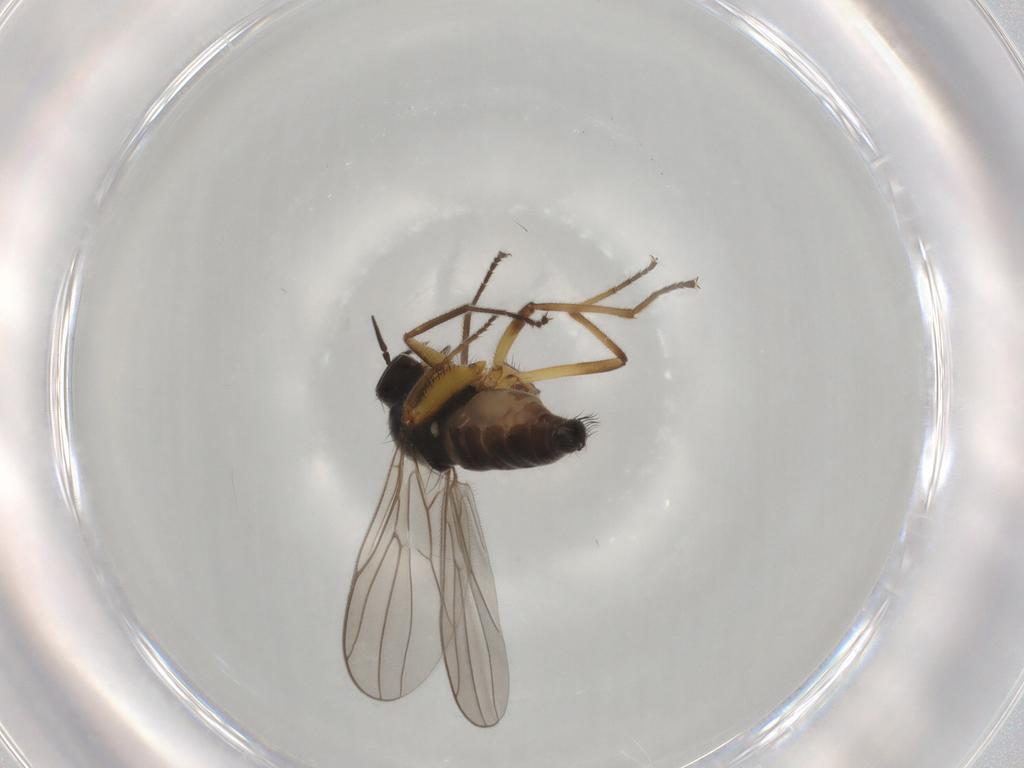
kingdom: Animalia
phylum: Arthropoda
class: Insecta
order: Diptera
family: Hybotidae
